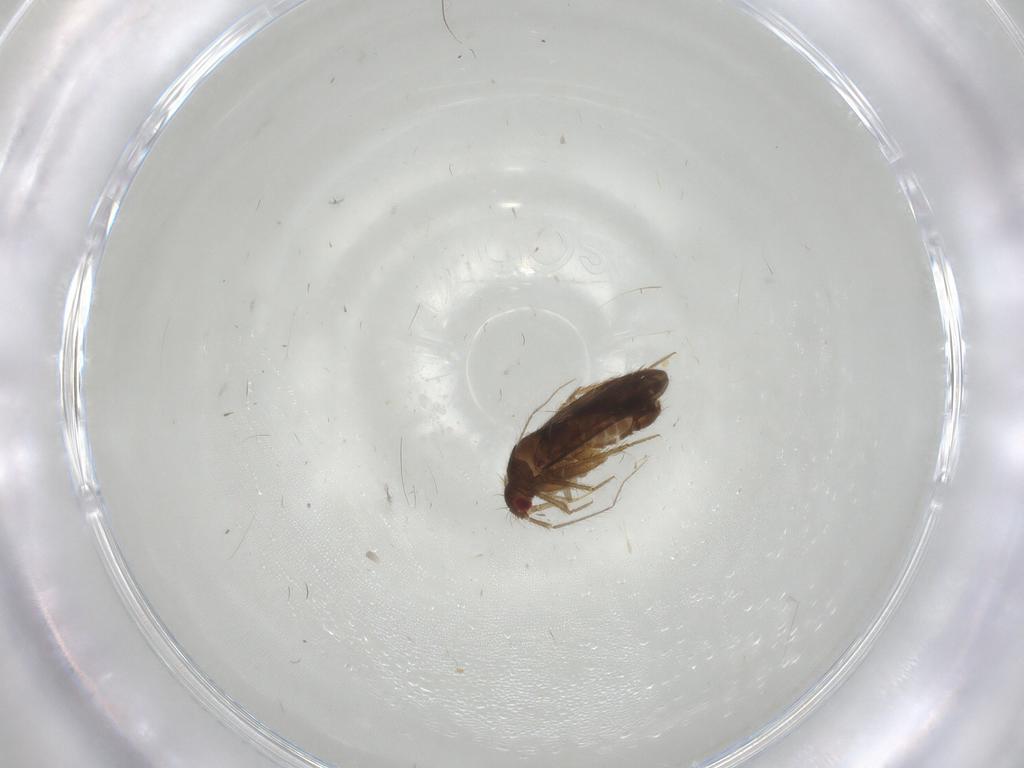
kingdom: Animalia
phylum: Arthropoda
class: Insecta
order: Hemiptera
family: Ceratocombidae
